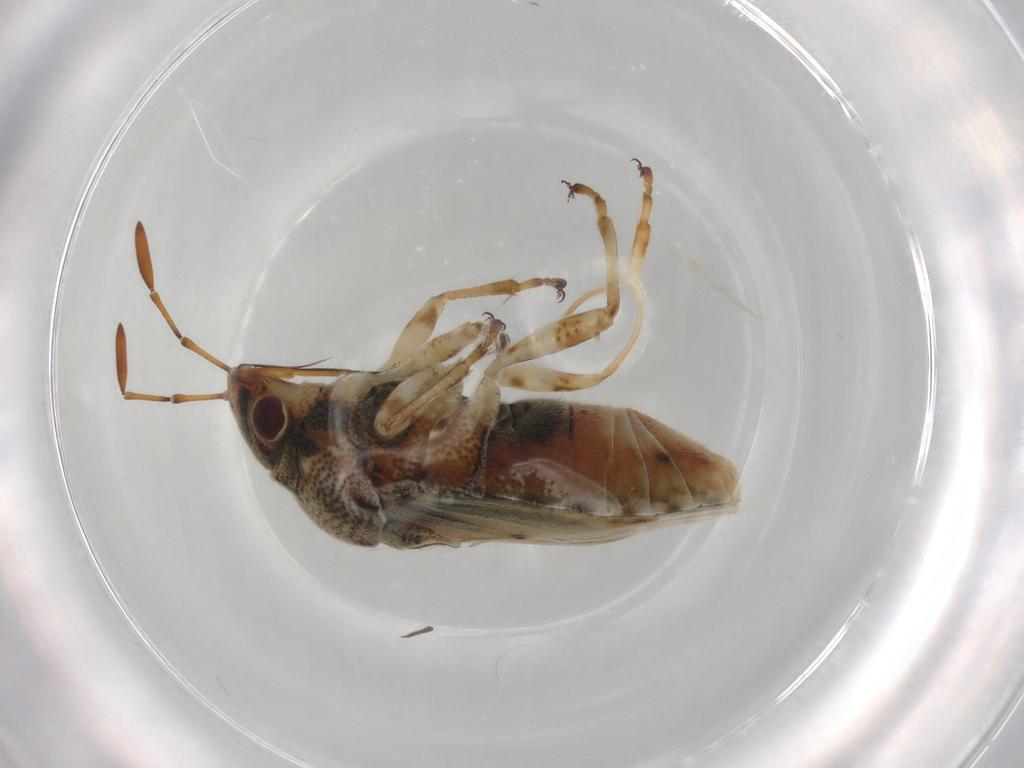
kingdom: Animalia
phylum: Arthropoda
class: Insecta
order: Hemiptera
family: Lygaeidae
